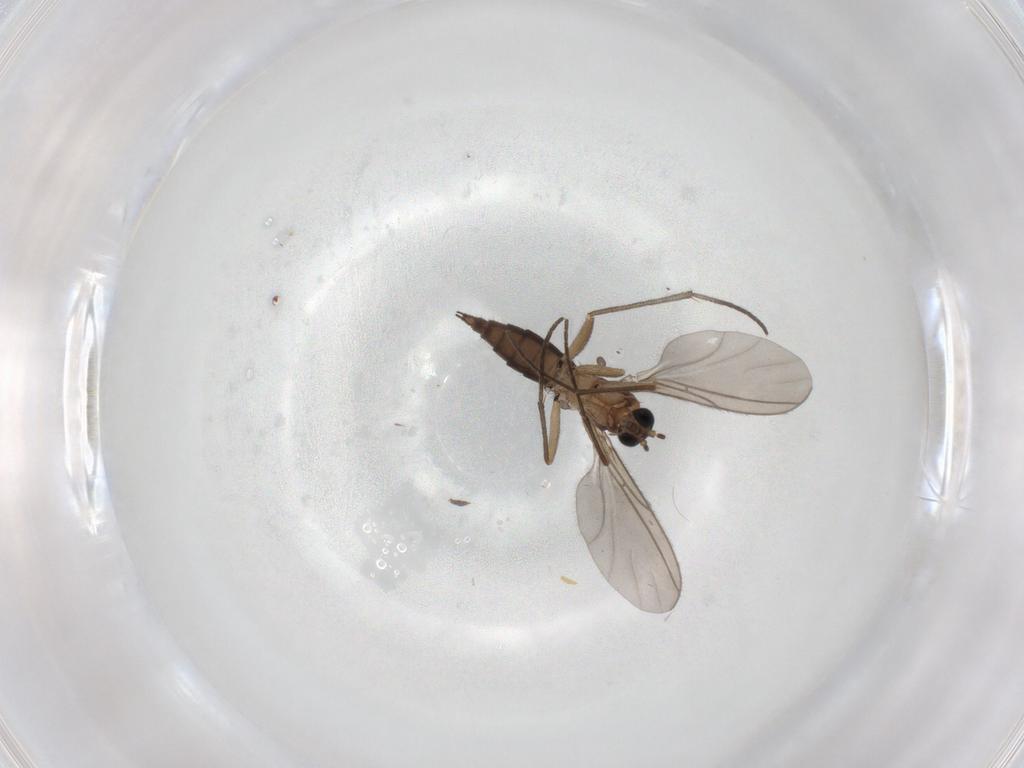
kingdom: Animalia
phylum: Arthropoda
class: Insecta
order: Diptera
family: Sciaridae
